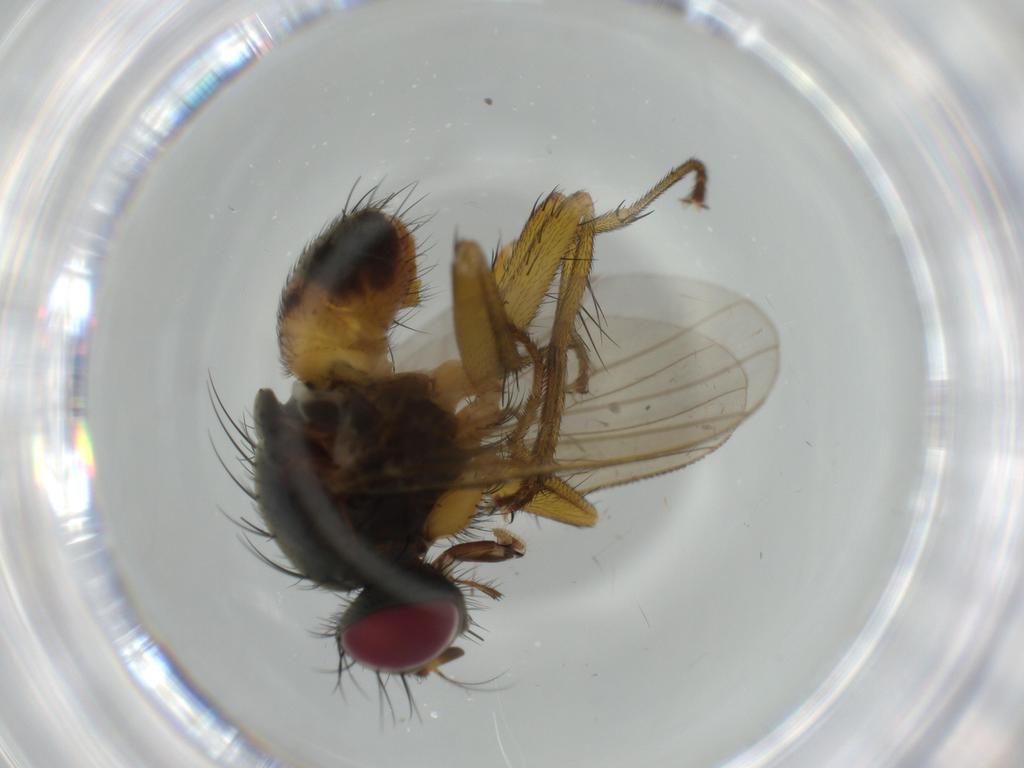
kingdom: Animalia
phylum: Arthropoda
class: Insecta
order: Diptera
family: Muscidae
